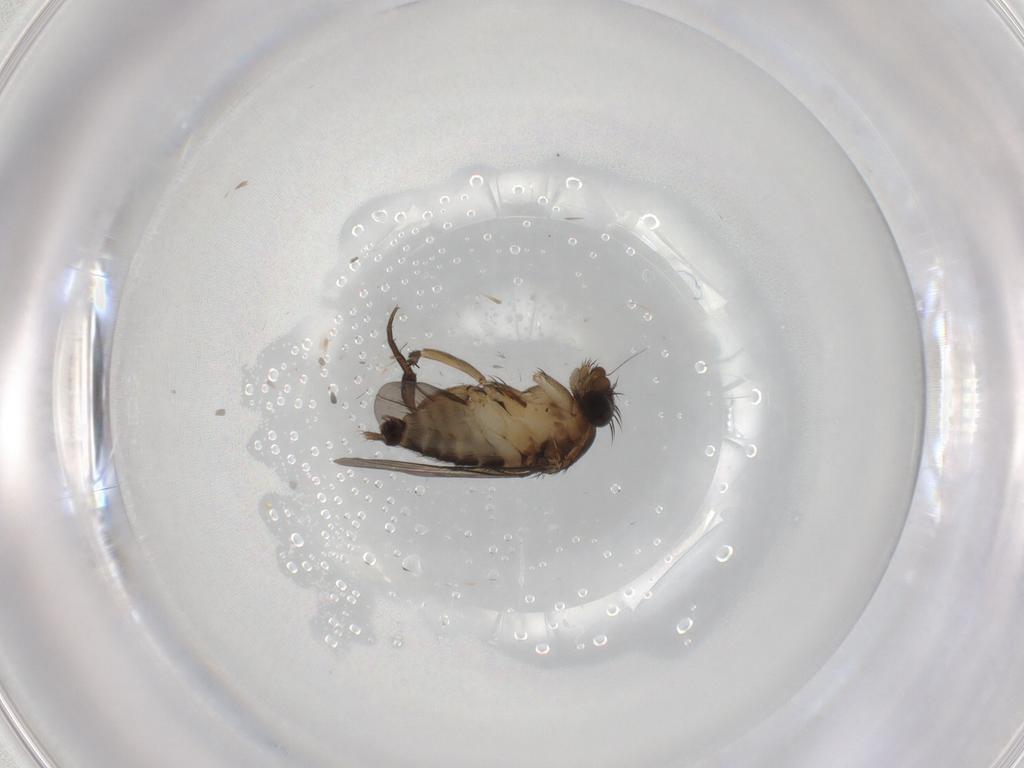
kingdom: Animalia
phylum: Arthropoda
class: Insecta
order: Diptera
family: Phoridae
